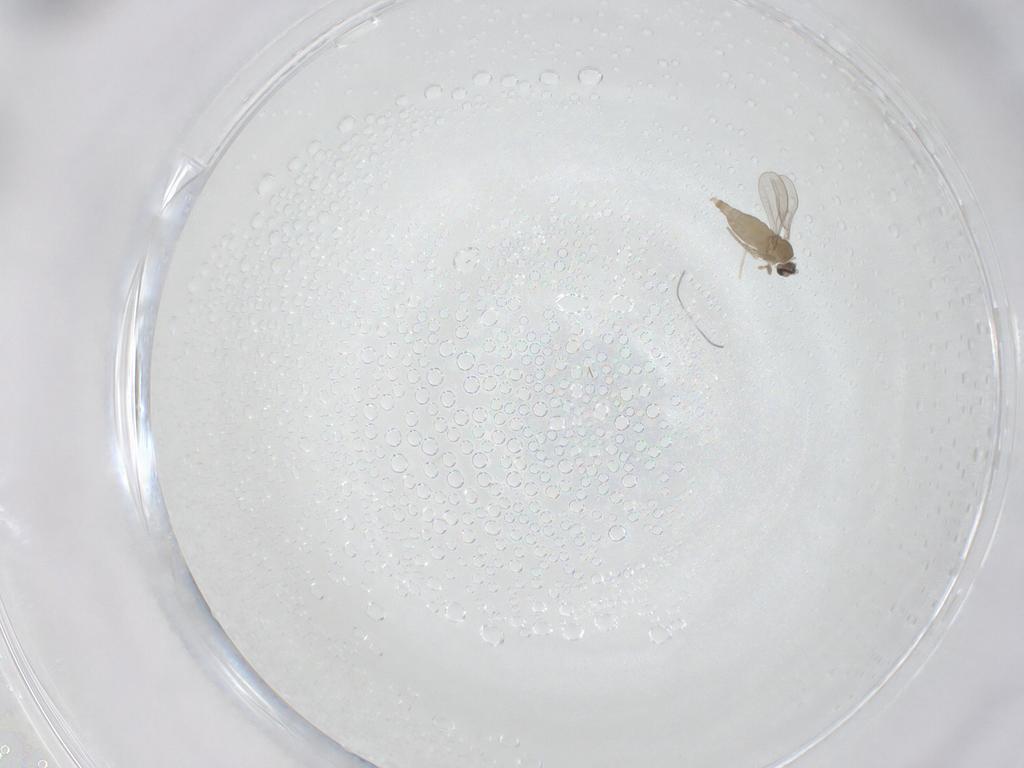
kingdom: Animalia
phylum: Arthropoda
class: Insecta
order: Diptera
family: Cecidomyiidae
